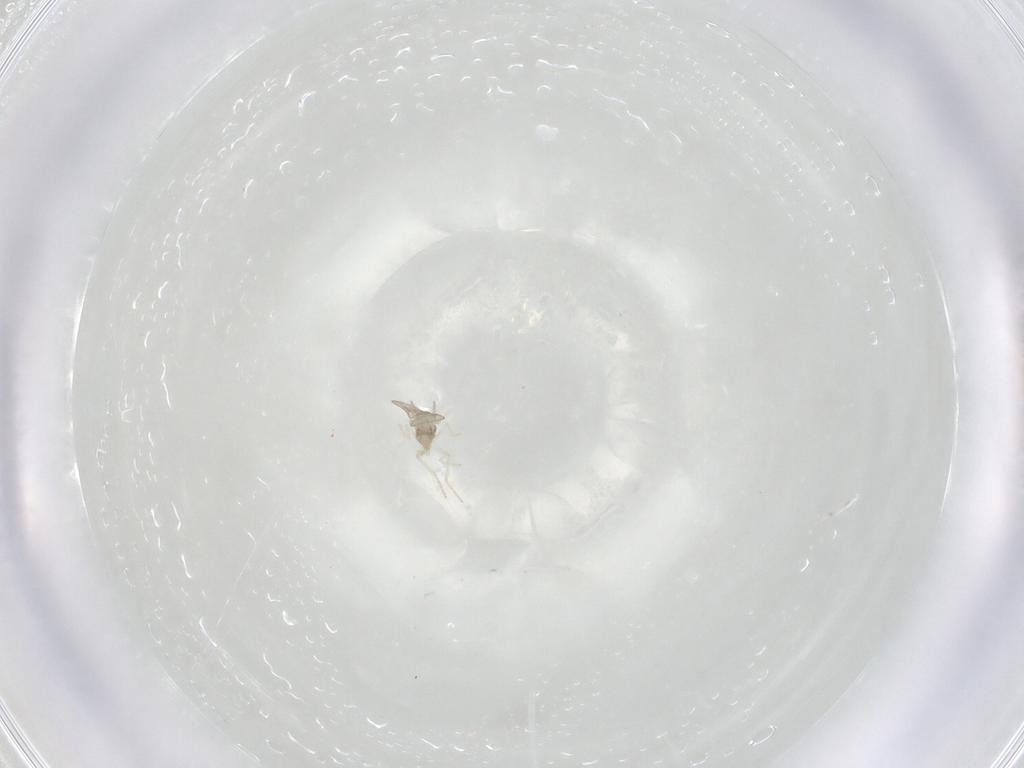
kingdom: Animalia
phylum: Arthropoda
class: Insecta
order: Diptera
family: Cecidomyiidae
